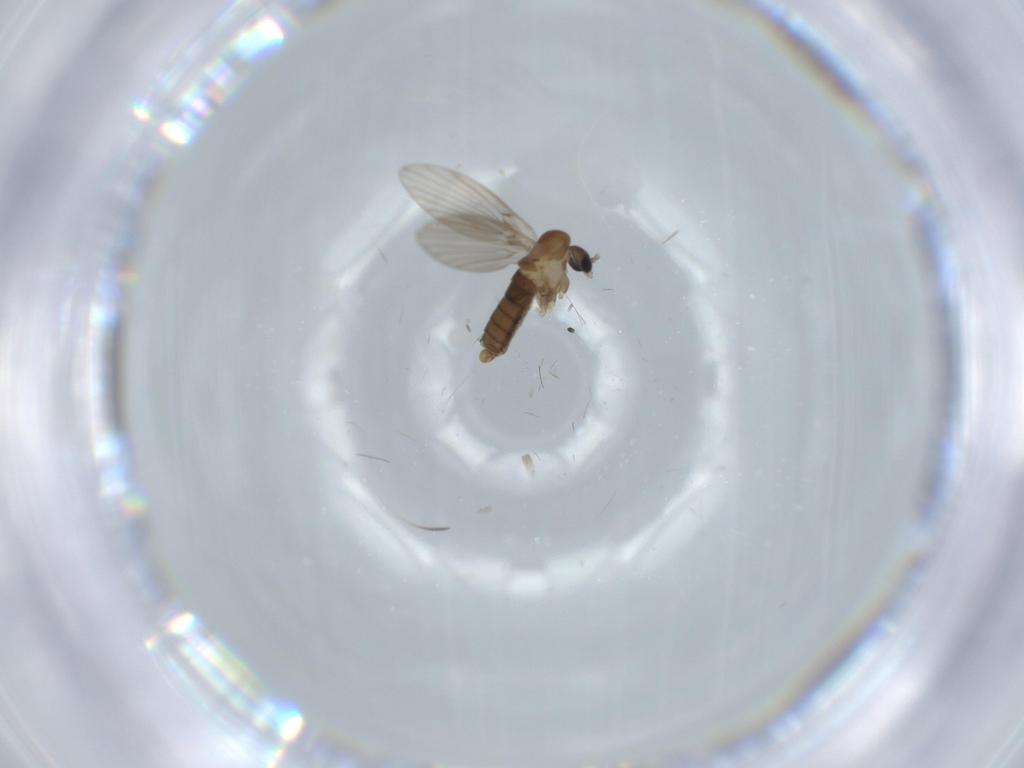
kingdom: Animalia
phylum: Arthropoda
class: Insecta
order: Diptera
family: Phoridae
